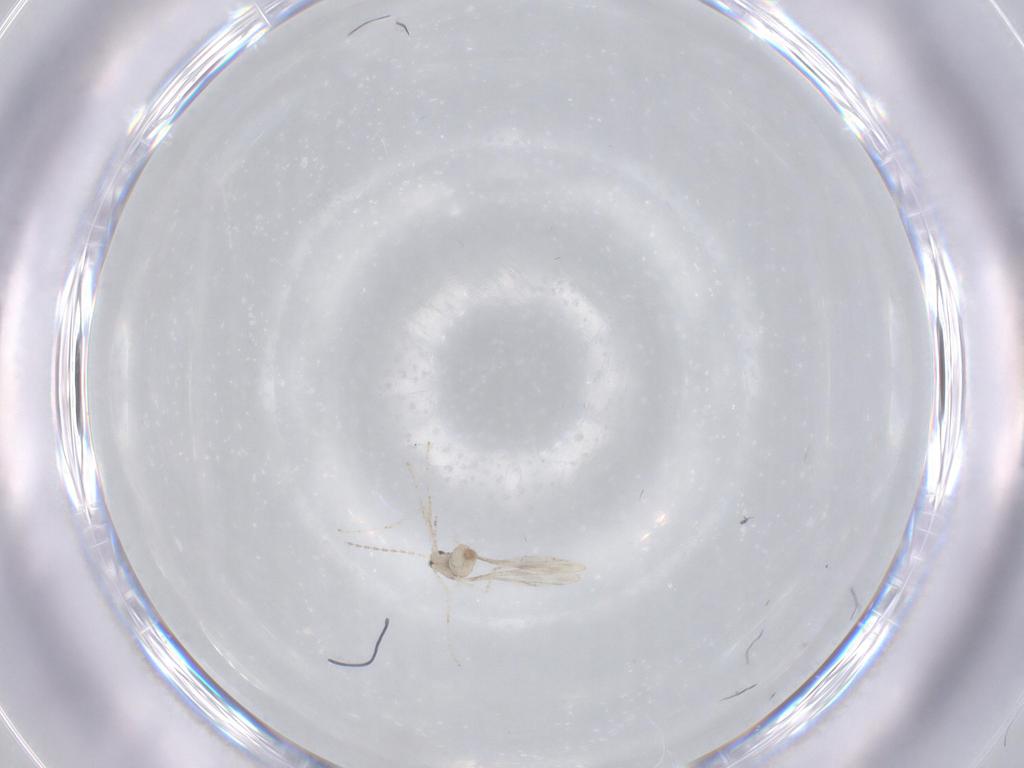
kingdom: Animalia
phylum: Arthropoda
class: Insecta
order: Diptera
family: Cecidomyiidae
